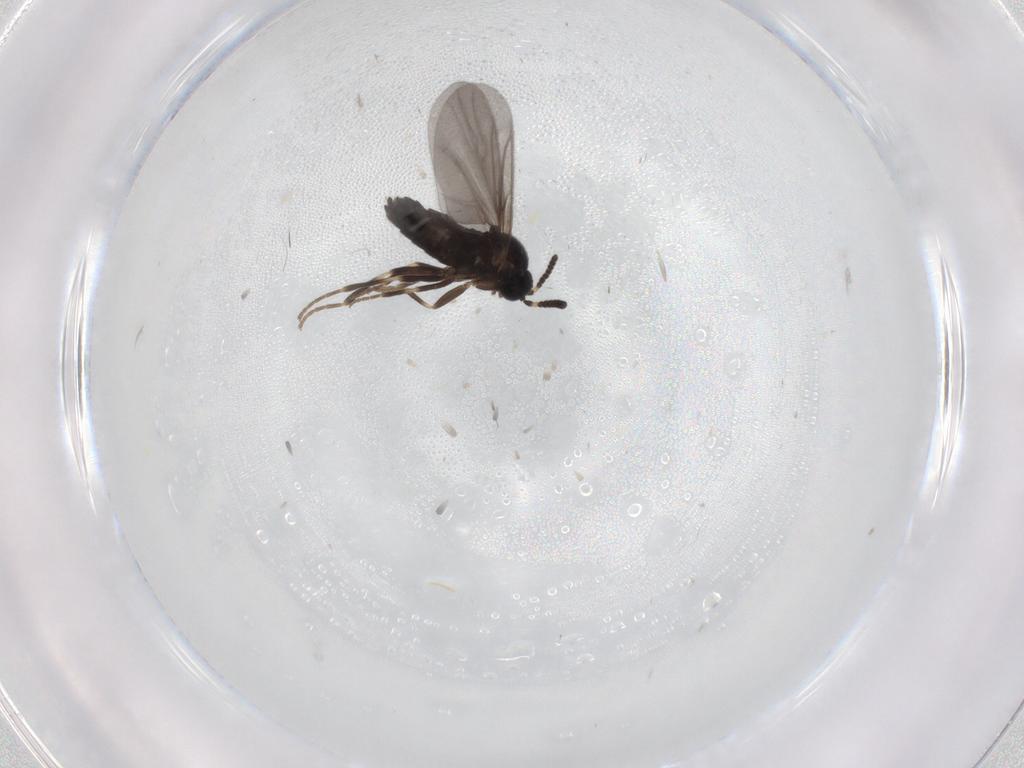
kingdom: Animalia
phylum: Arthropoda
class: Insecta
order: Diptera
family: Scatopsidae
